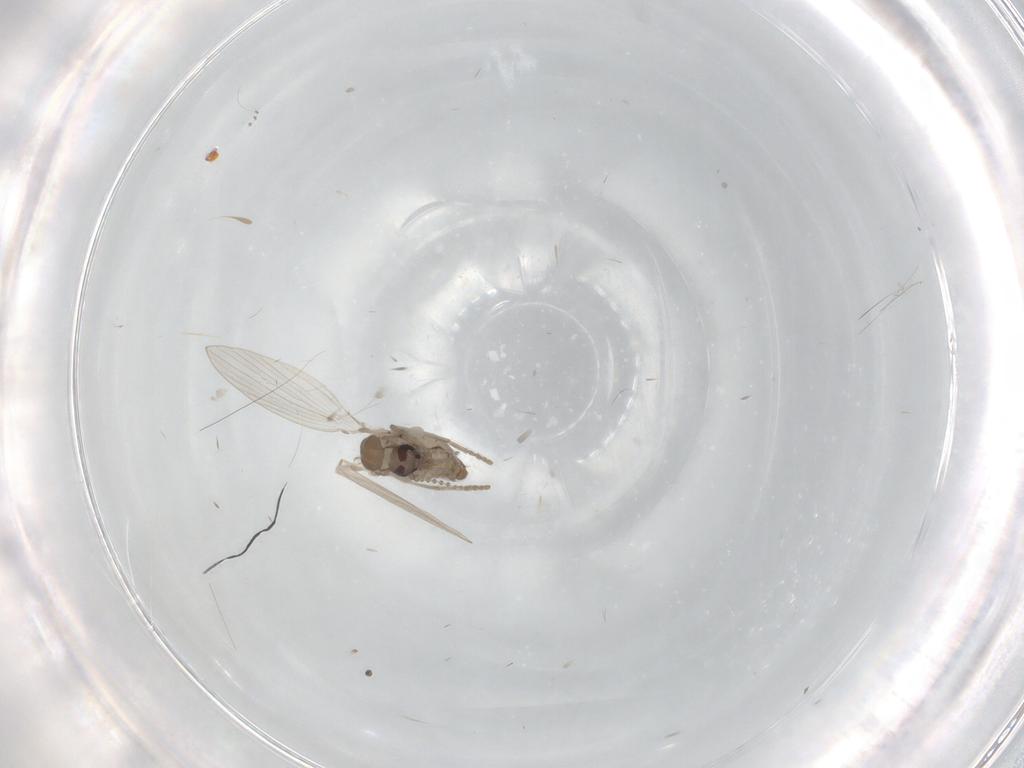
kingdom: Animalia
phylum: Arthropoda
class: Insecta
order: Diptera
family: Psychodidae
